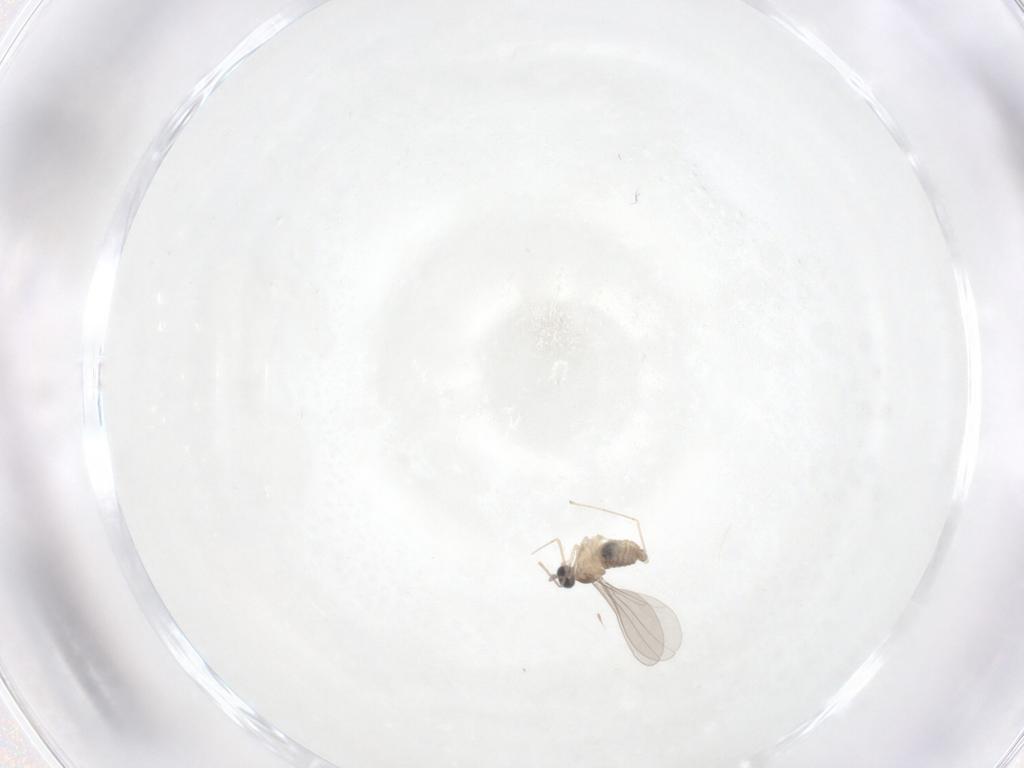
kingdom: Animalia
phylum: Arthropoda
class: Insecta
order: Diptera
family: Cecidomyiidae
